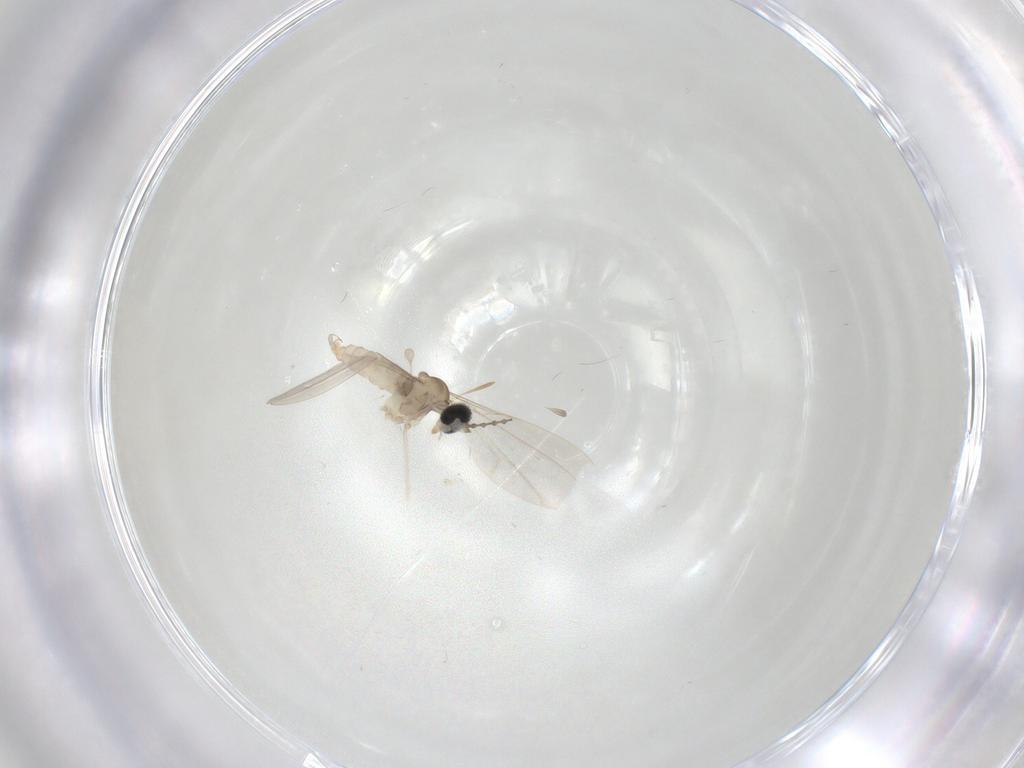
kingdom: Animalia
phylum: Arthropoda
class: Insecta
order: Diptera
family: Cecidomyiidae
